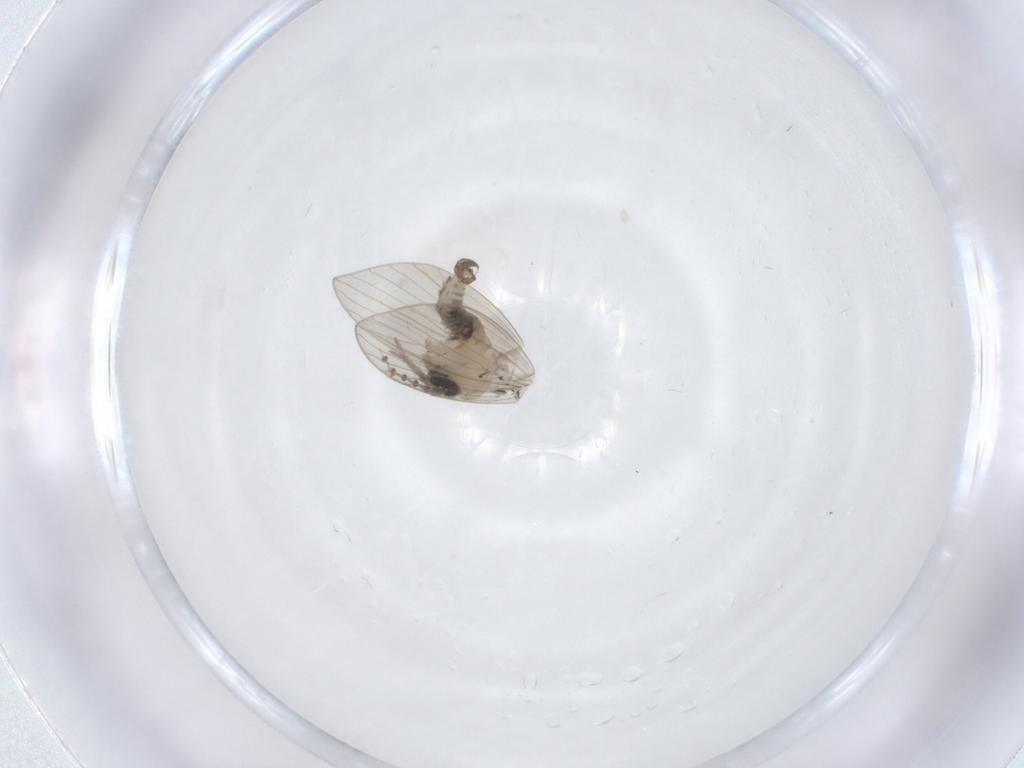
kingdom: Animalia
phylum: Arthropoda
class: Insecta
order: Diptera
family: Psychodidae
